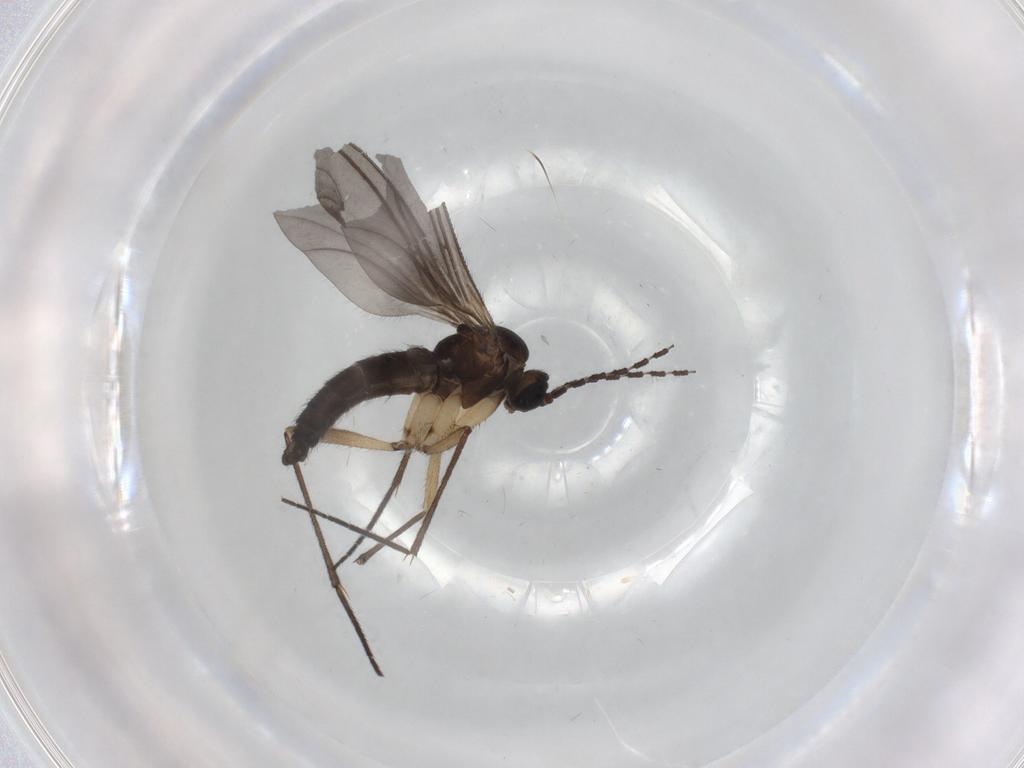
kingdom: Animalia
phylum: Arthropoda
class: Insecta
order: Diptera
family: Sciaridae
